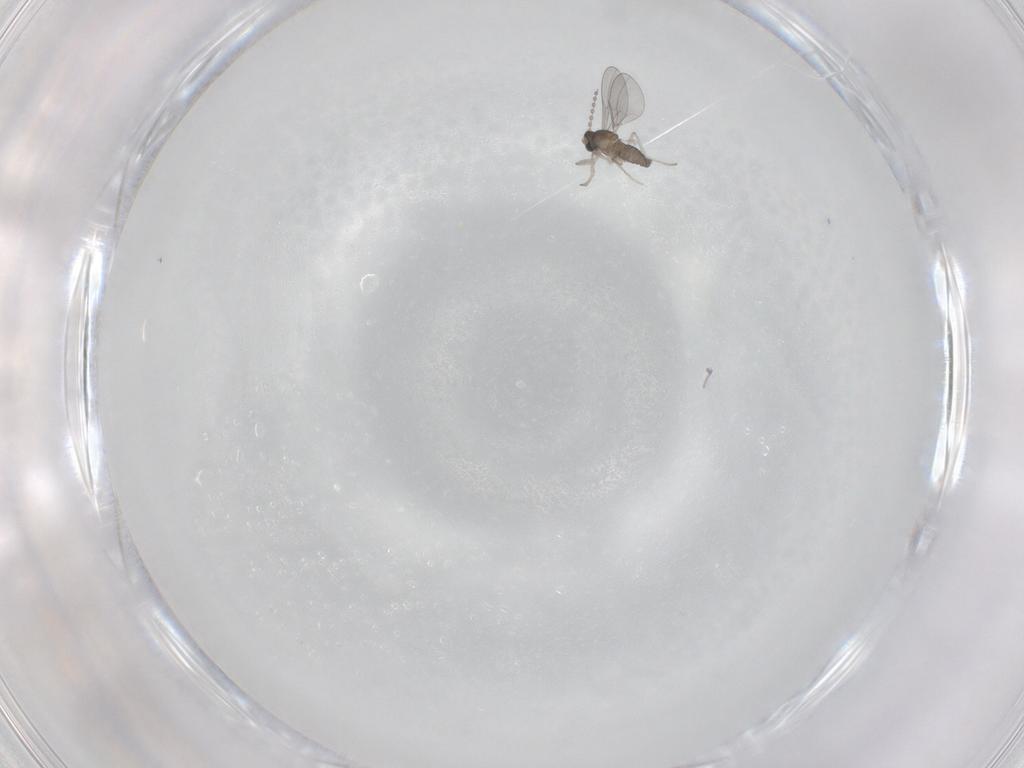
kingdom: Animalia
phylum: Arthropoda
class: Insecta
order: Diptera
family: Cecidomyiidae
